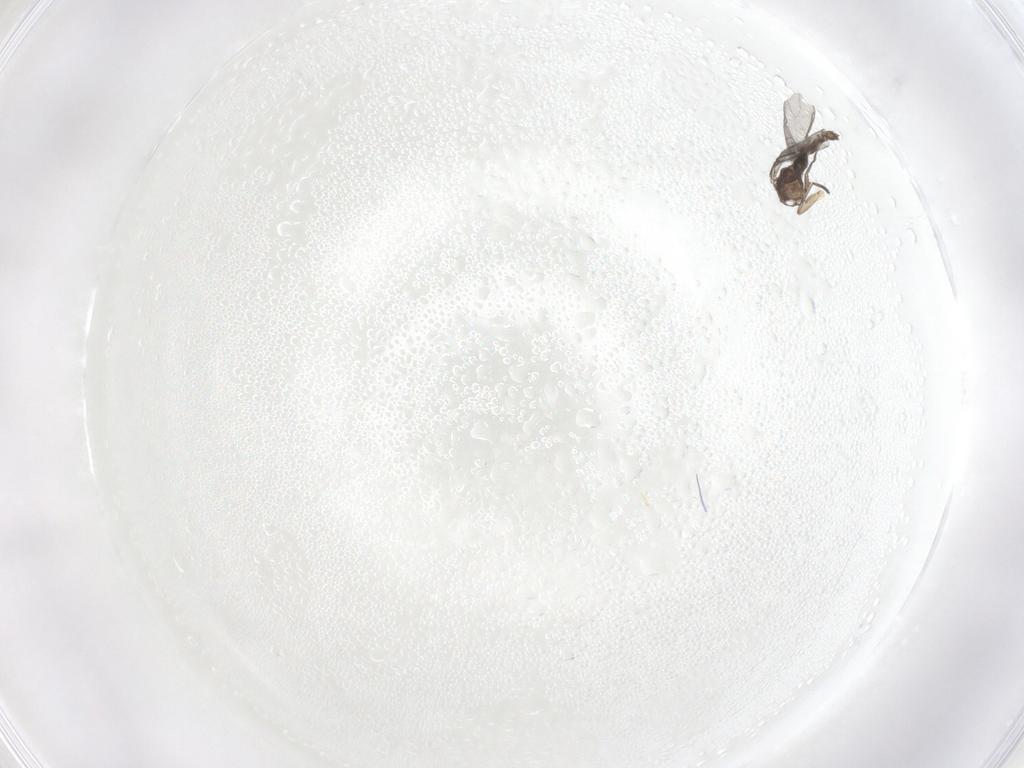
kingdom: Animalia
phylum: Arthropoda
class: Insecta
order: Diptera
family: Sciaridae
